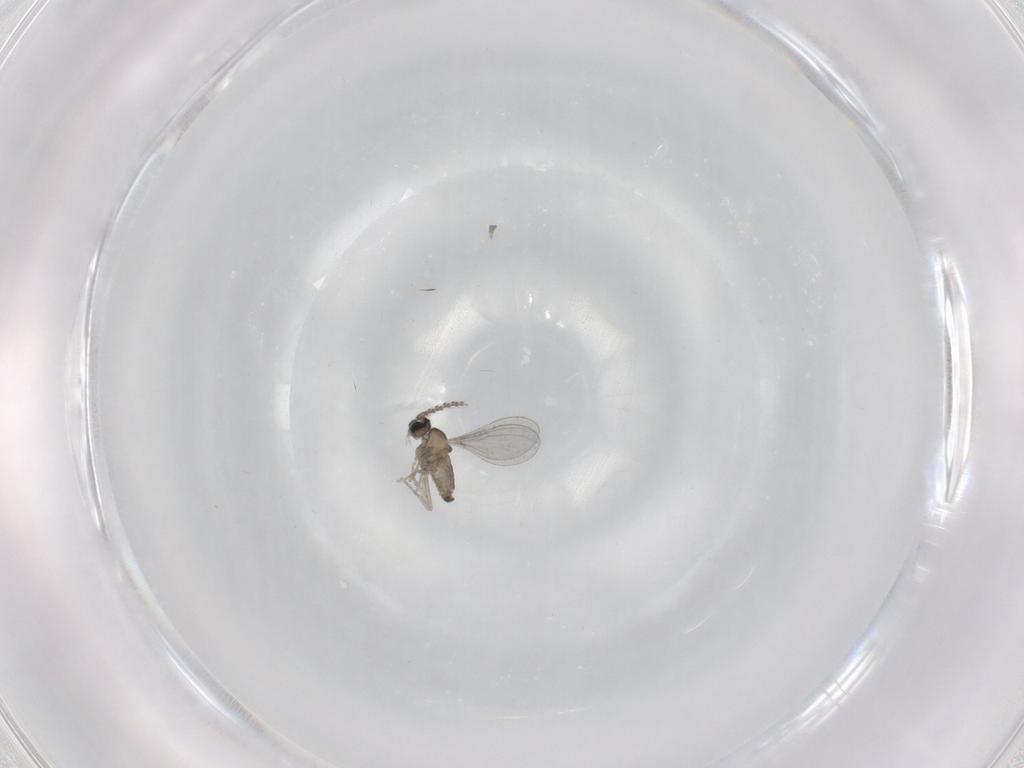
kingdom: Animalia
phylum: Arthropoda
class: Insecta
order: Diptera
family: Cecidomyiidae
